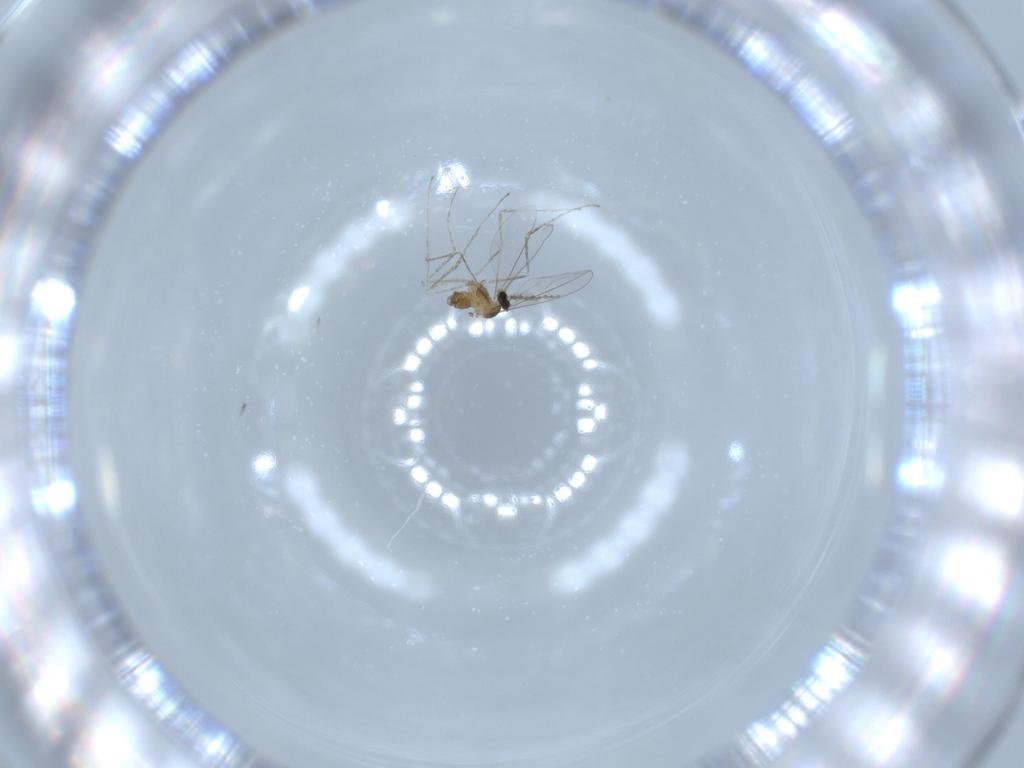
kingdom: Animalia
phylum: Arthropoda
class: Insecta
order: Diptera
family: Cecidomyiidae
